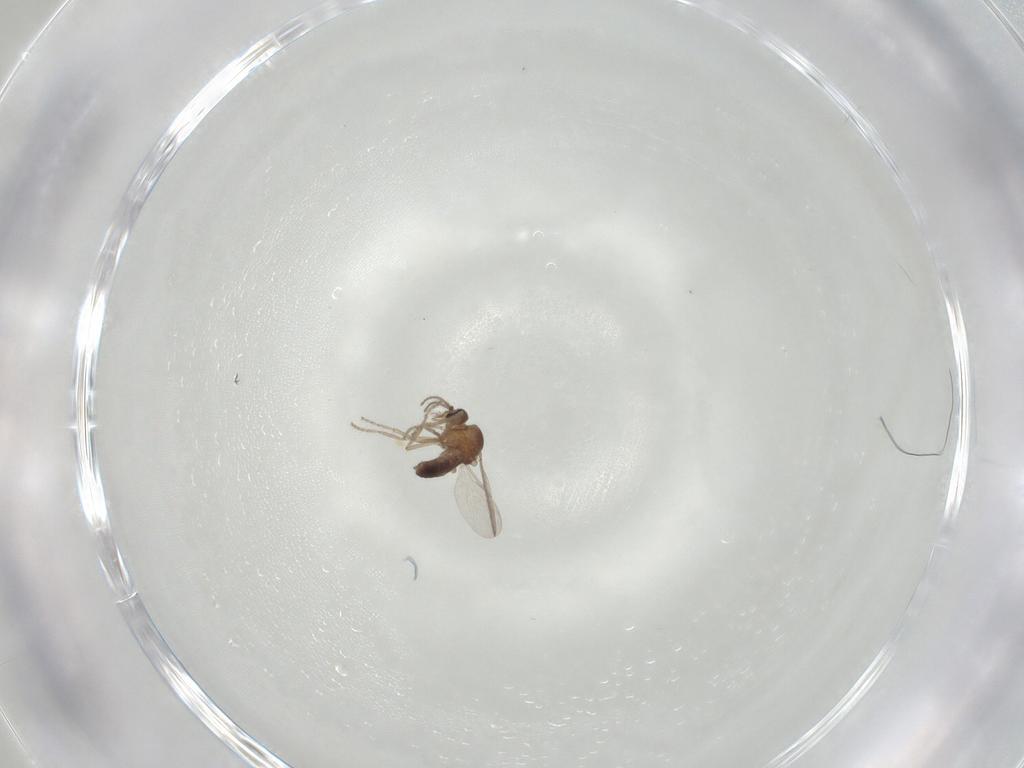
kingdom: Animalia
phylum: Arthropoda
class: Insecta
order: Diptera
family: Ceratopogonidae
